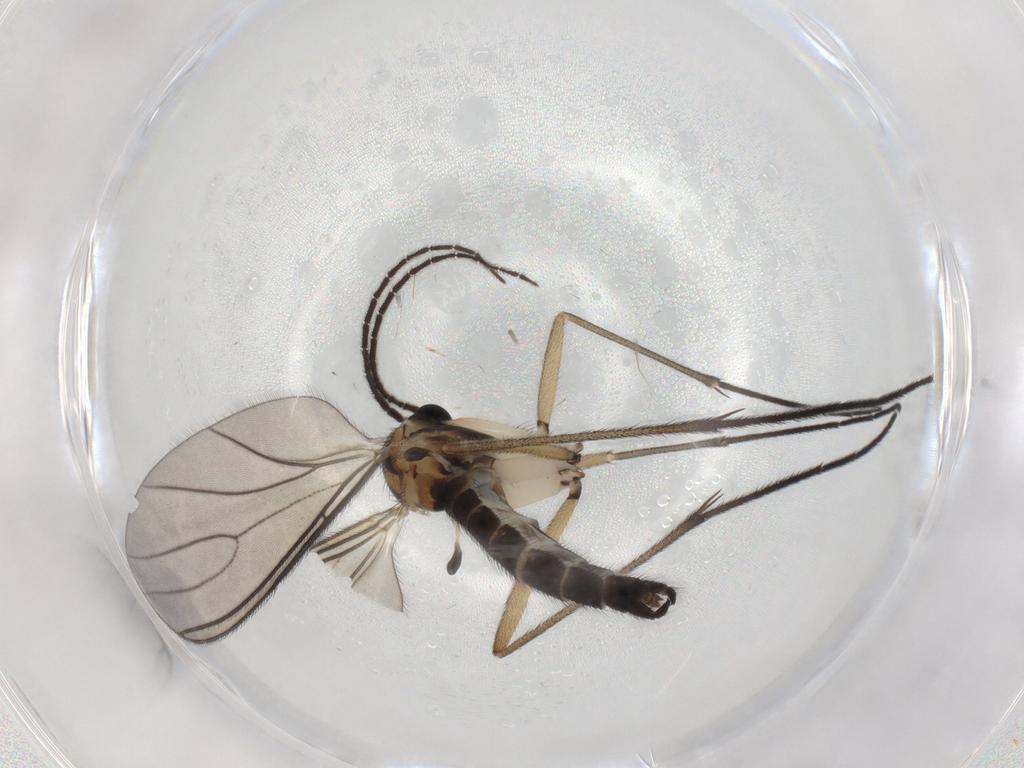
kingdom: Animalia
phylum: Arthropoda
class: Insecta
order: Diptera
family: Sciaridae
